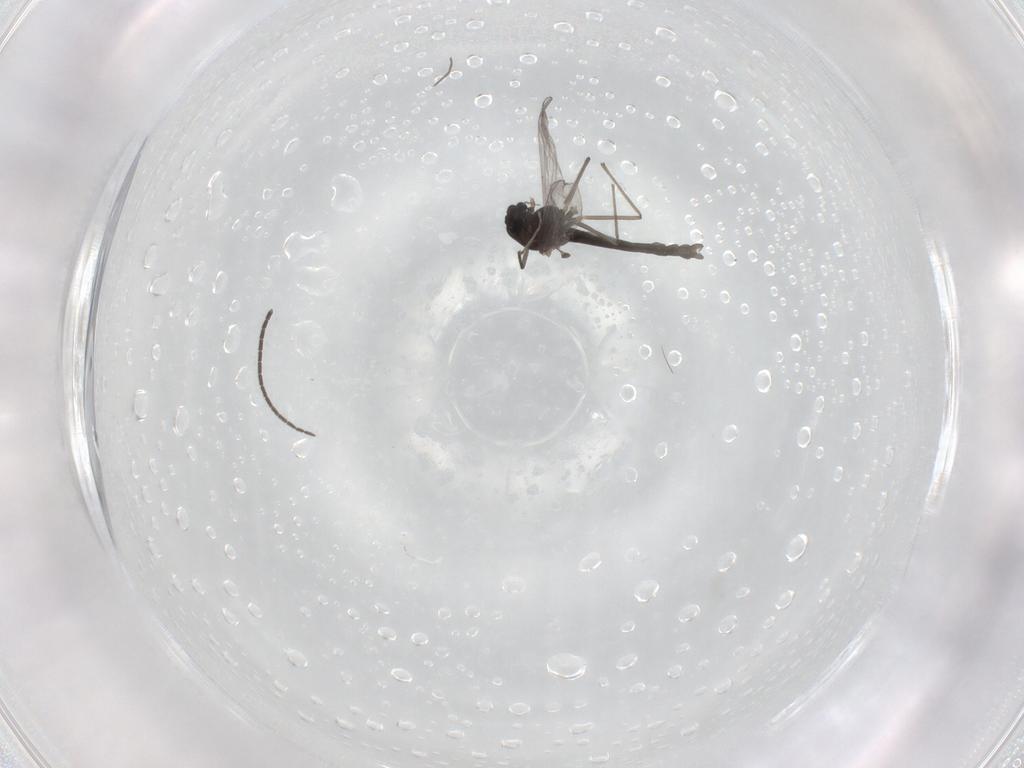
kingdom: Animalia
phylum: Arthropoda
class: Insecta
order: Diptera
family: Chironomidae
